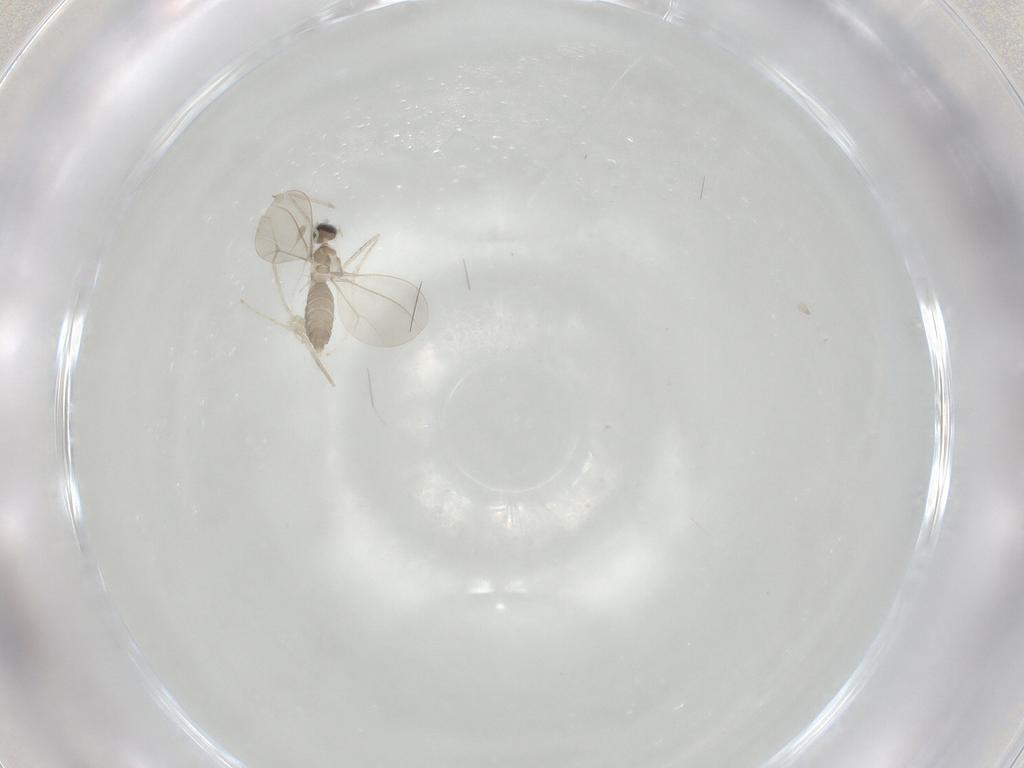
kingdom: Animalia
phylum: Arthropoda
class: Insecta
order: Diptera
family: Cecidomyiidae
